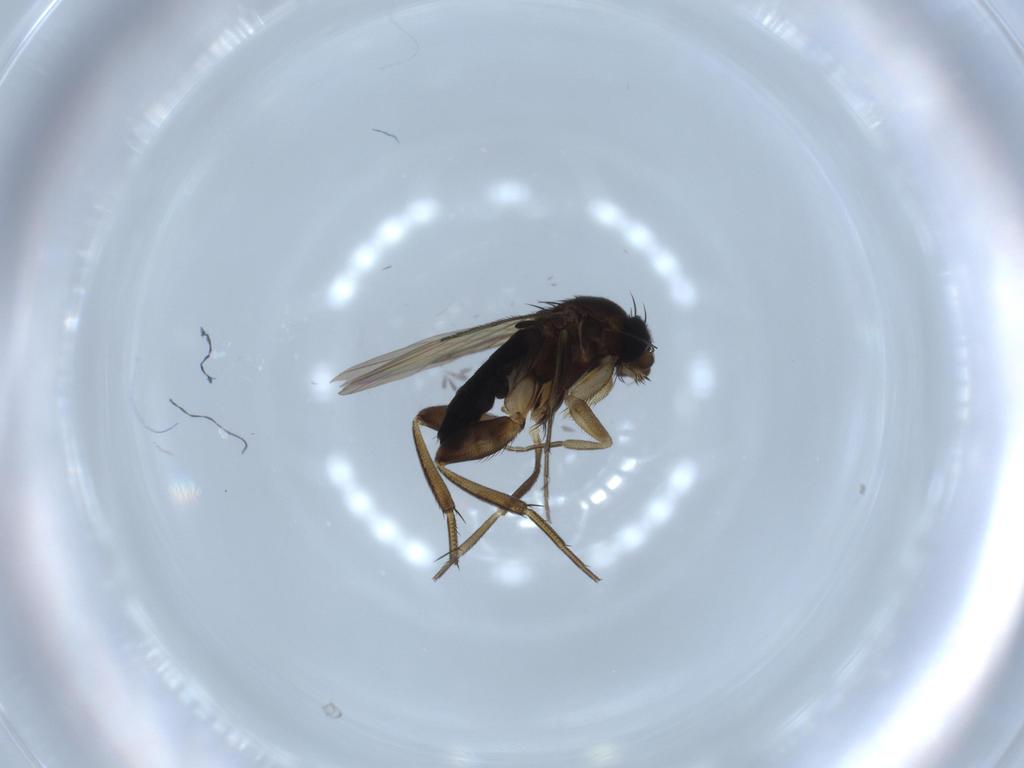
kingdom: Animalia
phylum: Arthropoda
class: Insecta
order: Diptera
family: Phoridae
